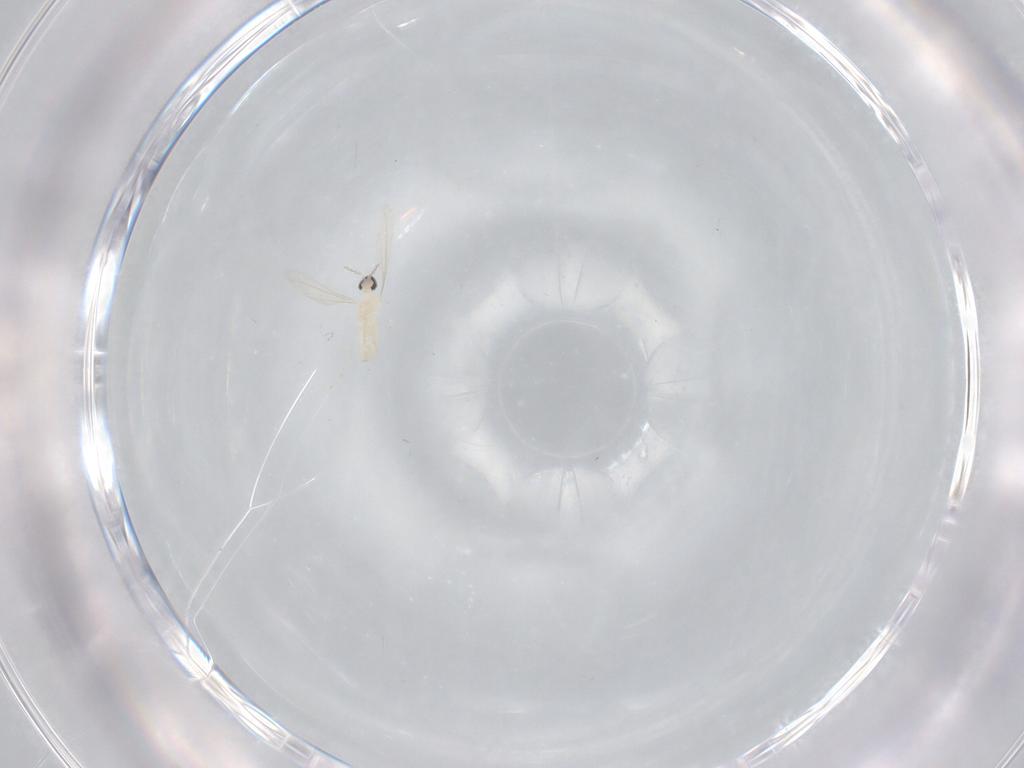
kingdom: Animalia
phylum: Arthropoda
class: Insecta
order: Diptera
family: Cecidomyiidae
